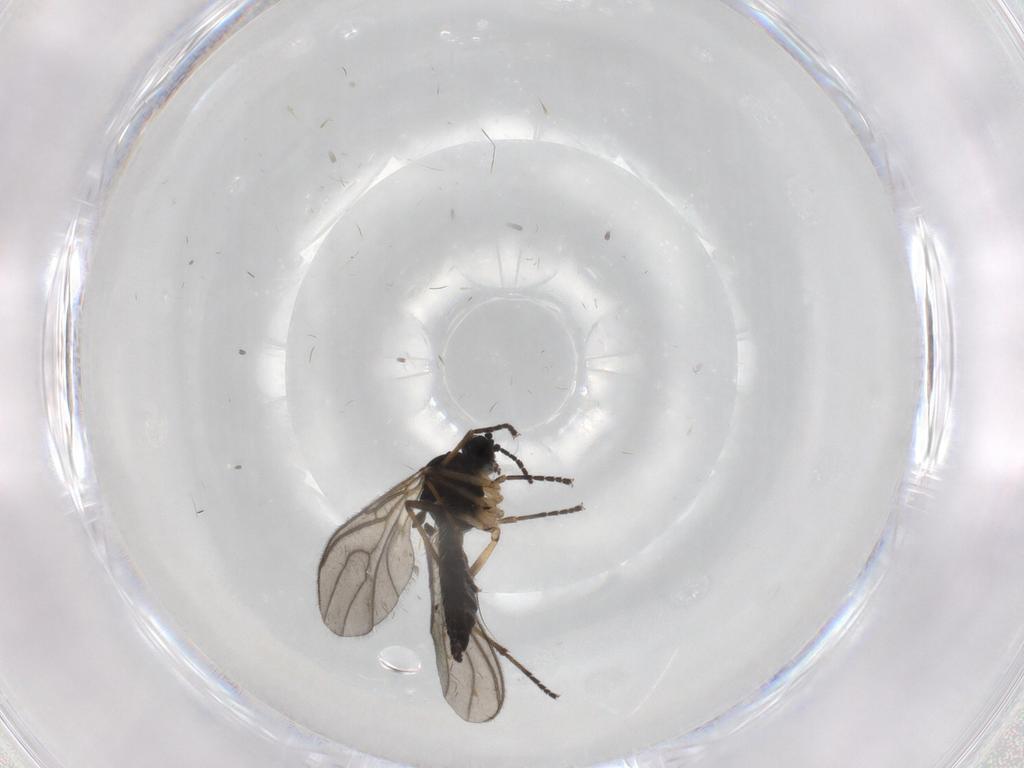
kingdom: Animalia
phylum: Arthropoda
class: Insecta
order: Diptera
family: Sciaridae
